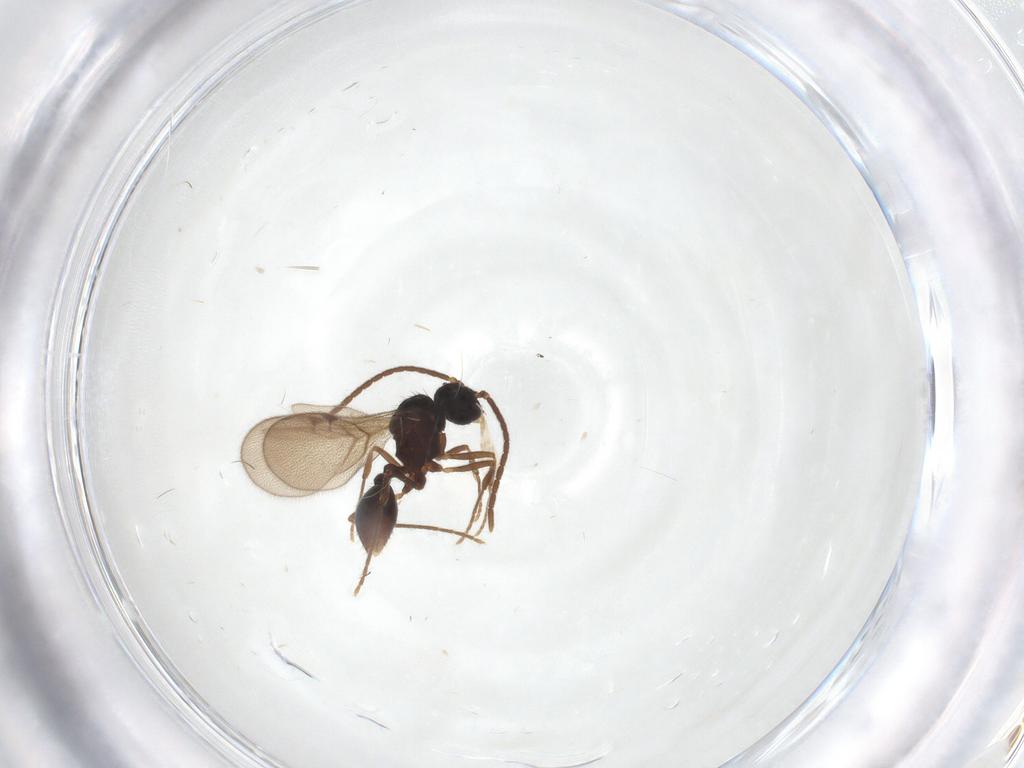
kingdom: Animalia
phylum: Arthropoda
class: Insecta
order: Hymenoptera
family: Formicidae
